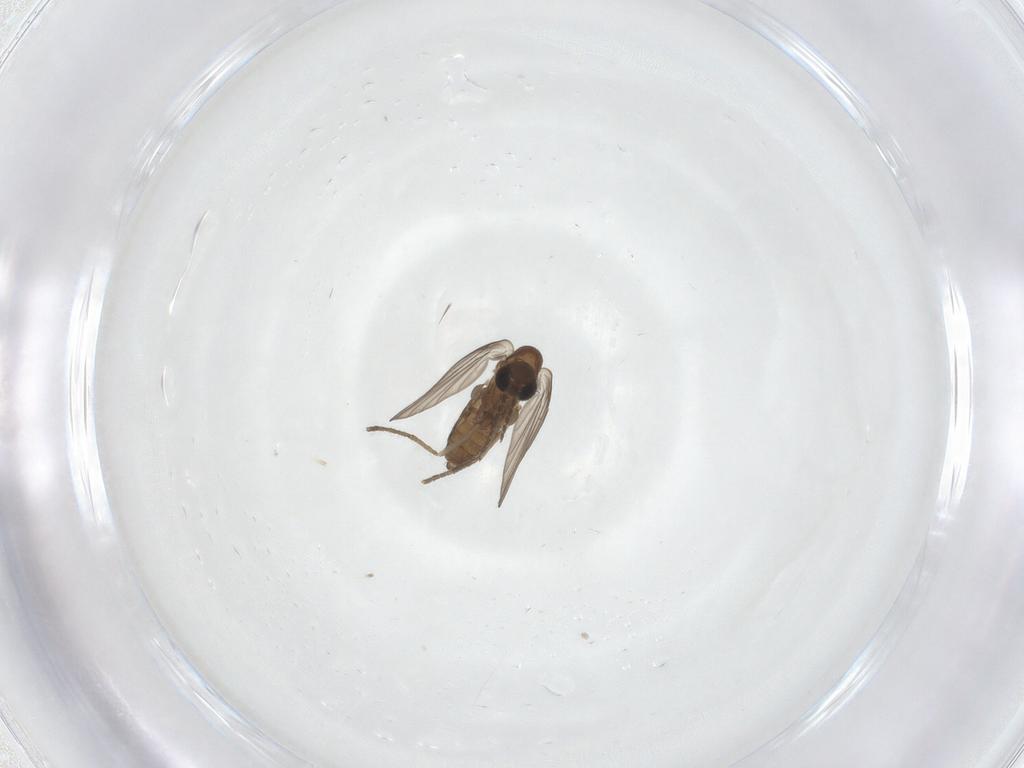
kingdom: Animalia
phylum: Arthropoda
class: Insecta
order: Diptera
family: Psychodidae
